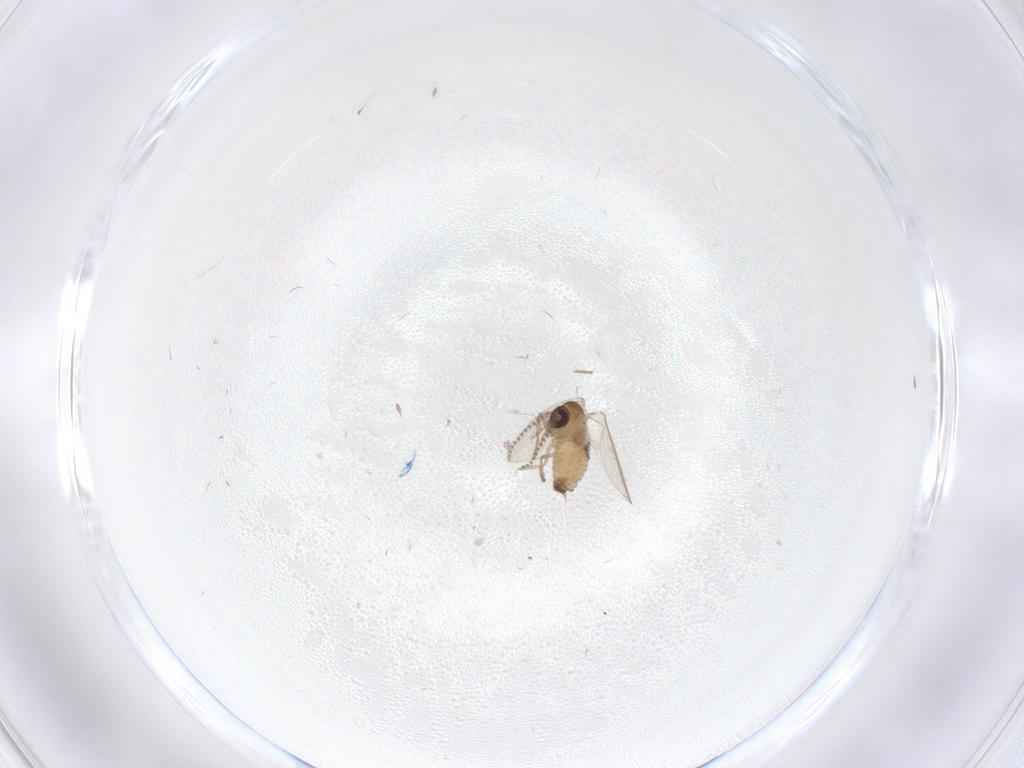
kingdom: Animalia
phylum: Arthropoda
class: Insecta
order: Diptera
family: Psychodidae
